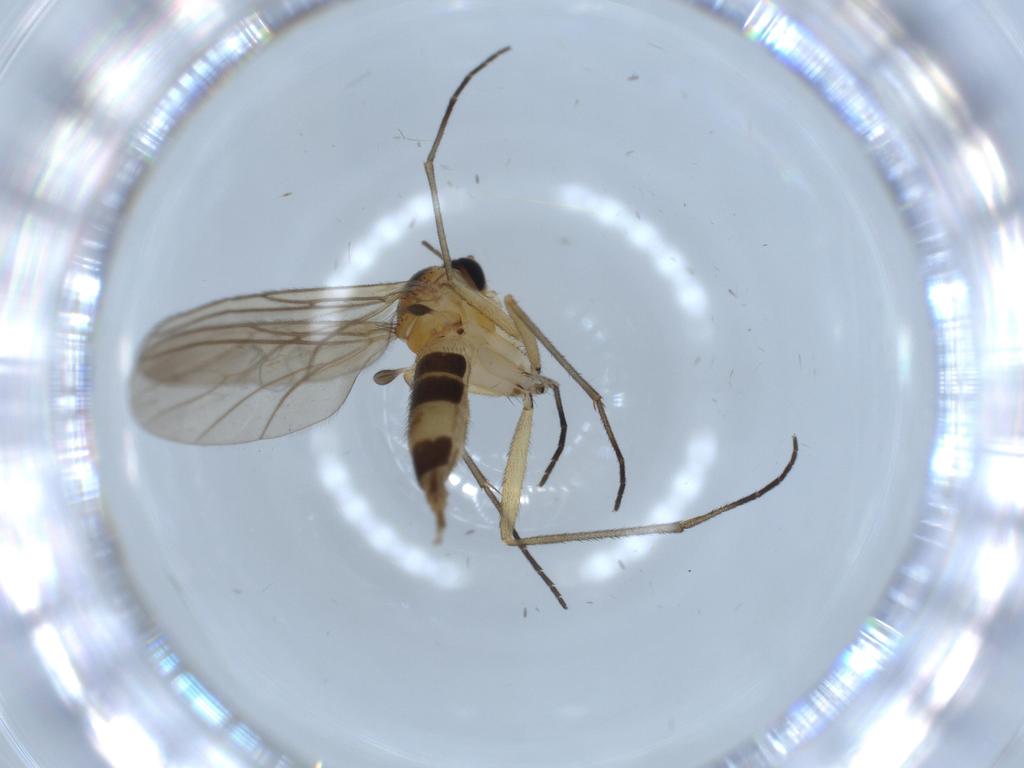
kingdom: Animalia
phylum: Arthropoda
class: Insecta
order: Diptera
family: Sciaridae
